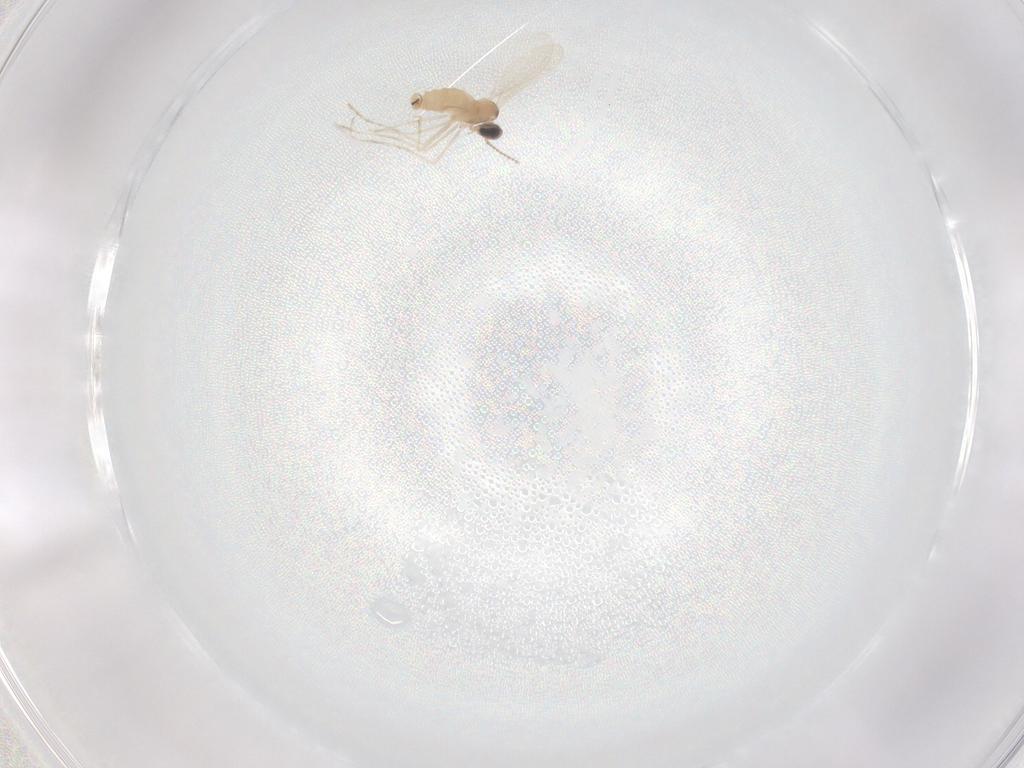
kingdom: Animalia
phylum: Arthropoda
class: Insecta
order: Diptera
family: Cecidomyiidae
